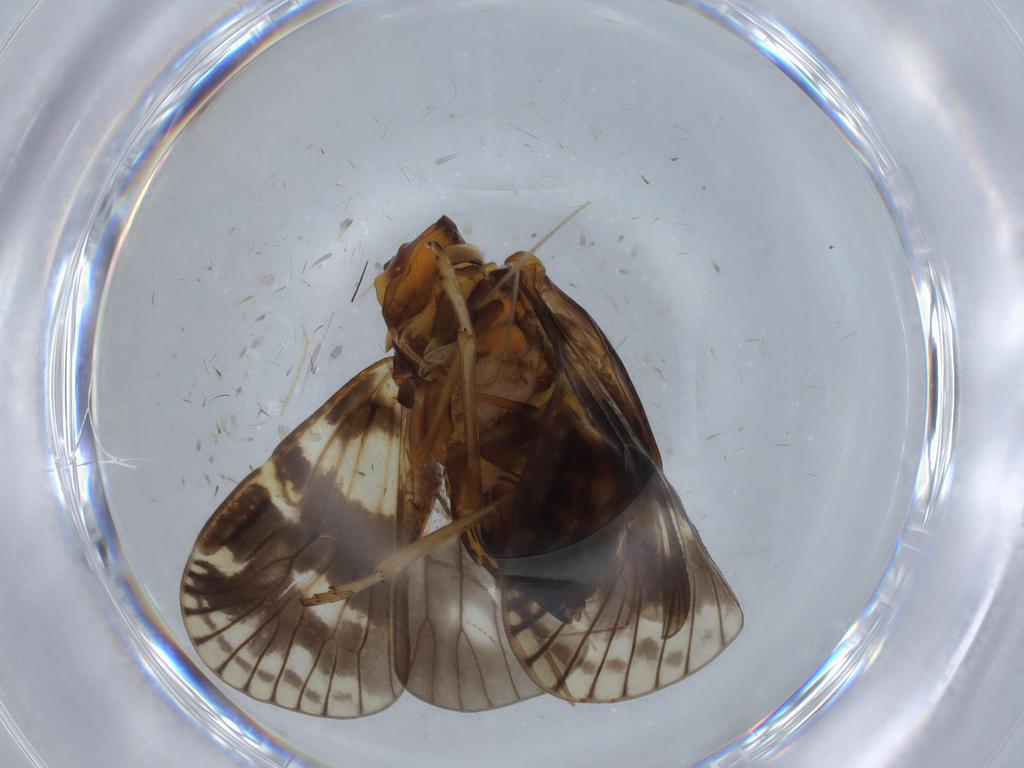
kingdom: Animalia
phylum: Arthropoda
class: Insecta
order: Hemiptera
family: Cixiidae
